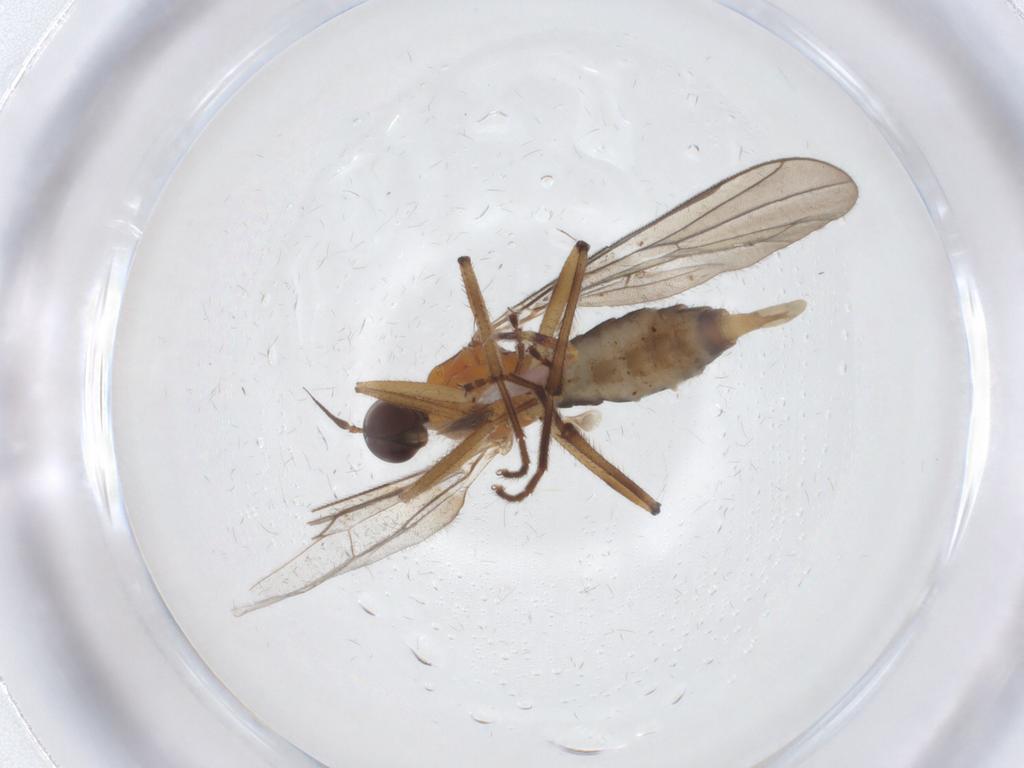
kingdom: Animalia
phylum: Arthropoda
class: Insecta
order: Diptera
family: Hybotidae
